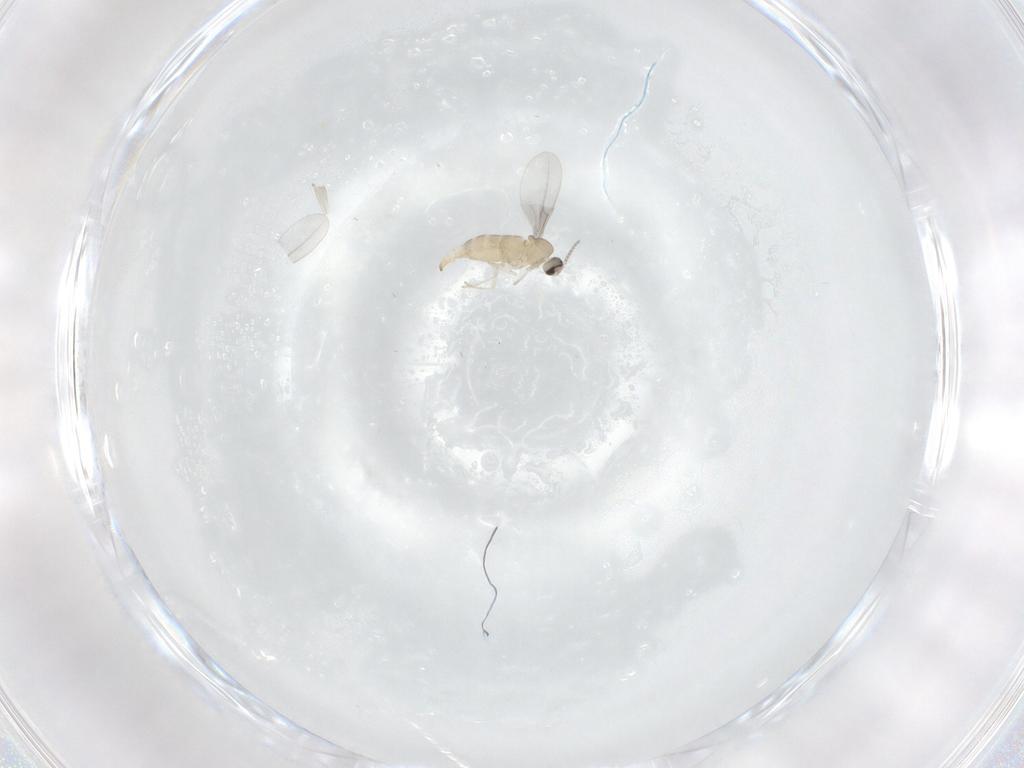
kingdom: Animalia
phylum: Arthropoda
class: Insecta
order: Diptera
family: Cecidomyiidae
